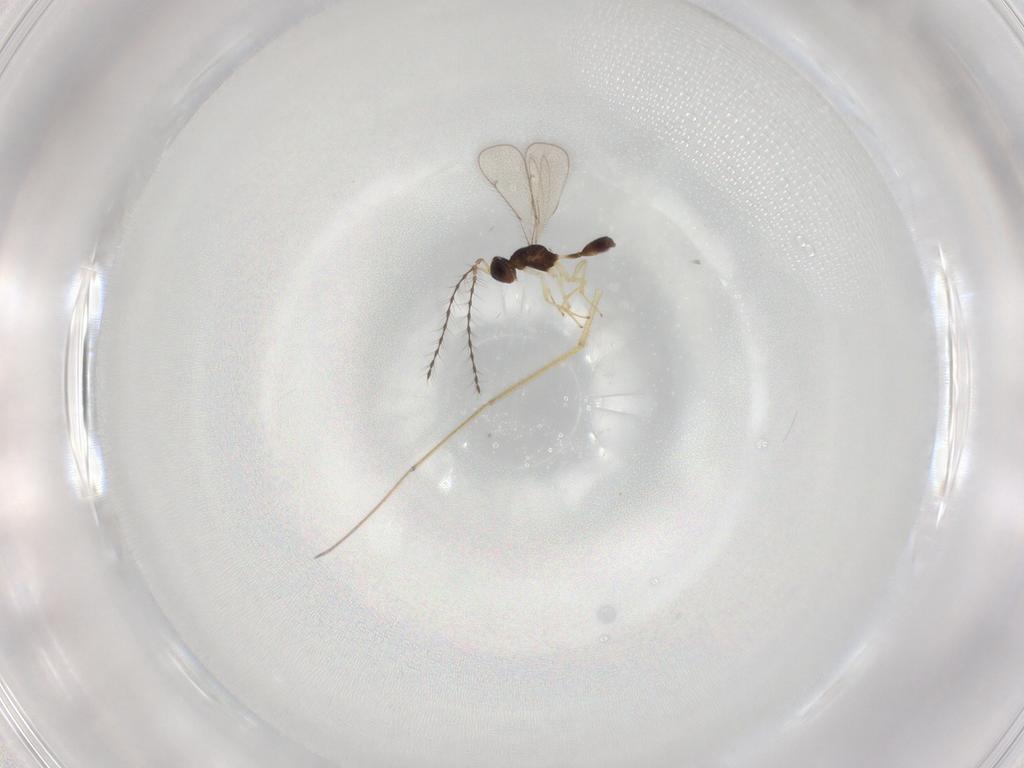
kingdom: Animalia
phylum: Arthropoda
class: Insecta
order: Hymenoptera
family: Diparidae
